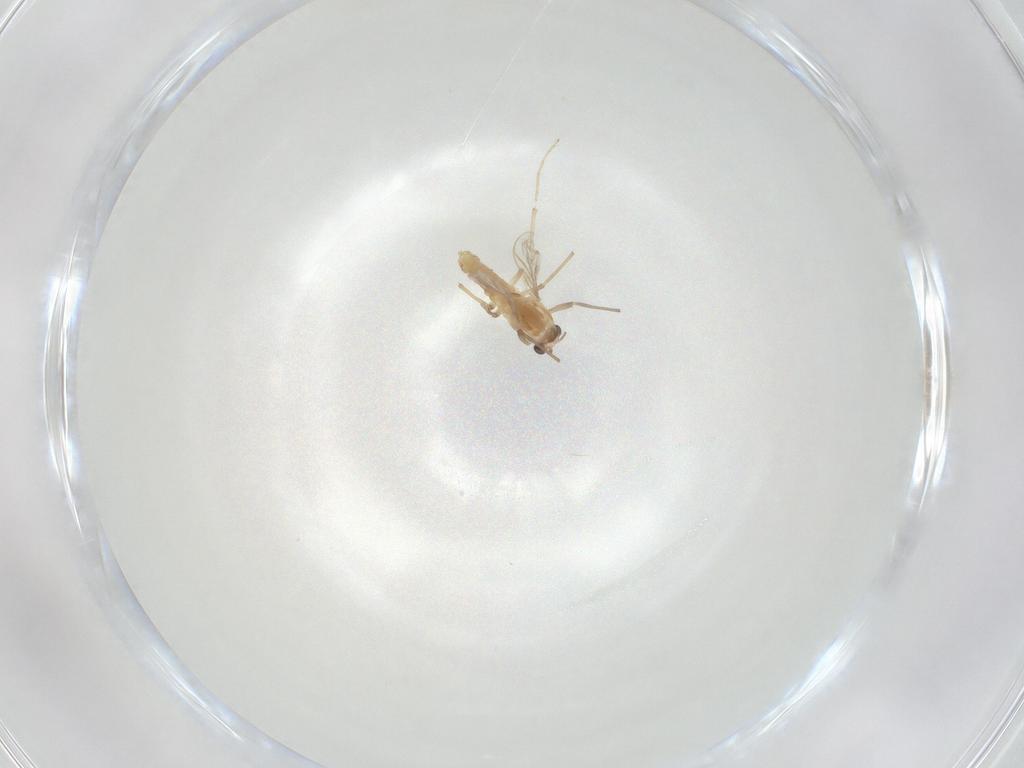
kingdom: Animalia
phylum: Arthropoda
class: Insecta
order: Diptera
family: Chironomidae
